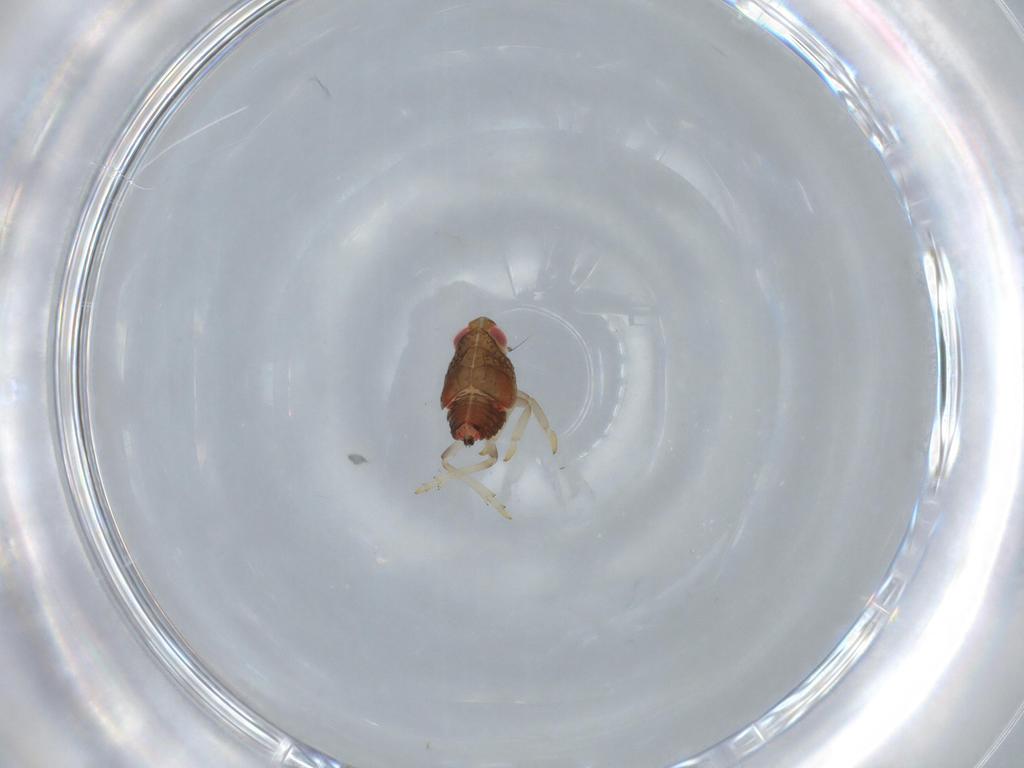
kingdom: Animalia
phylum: Arthropoda
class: Insecta
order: Hemiptera
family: Issidae
